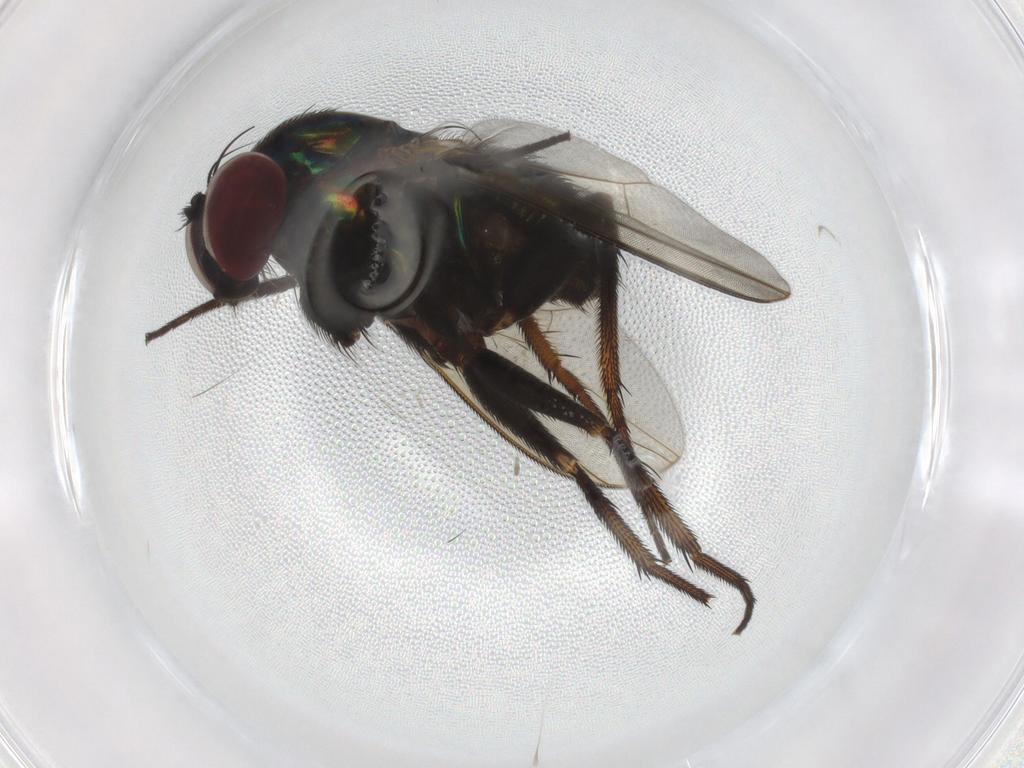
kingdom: Animalia
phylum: Arthropoda
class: Insecta
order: Diptera
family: Dolichopodidae
